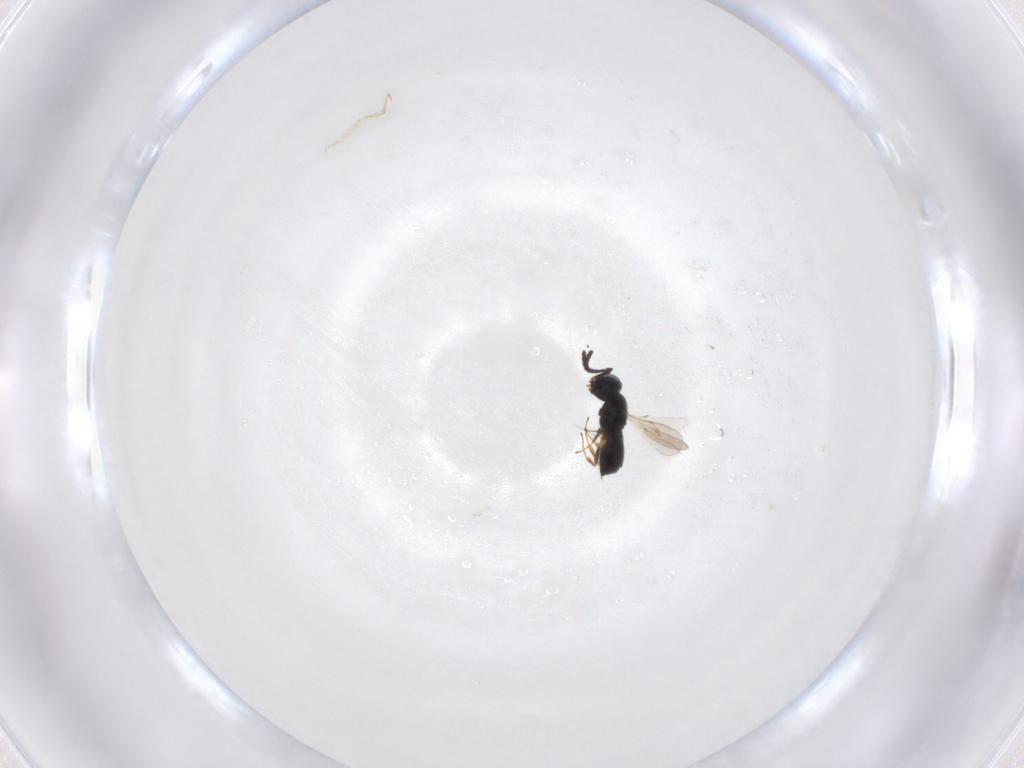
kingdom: Animalia
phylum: Arthropoda
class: Insecta
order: Hymenoptera
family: Scelionidae
